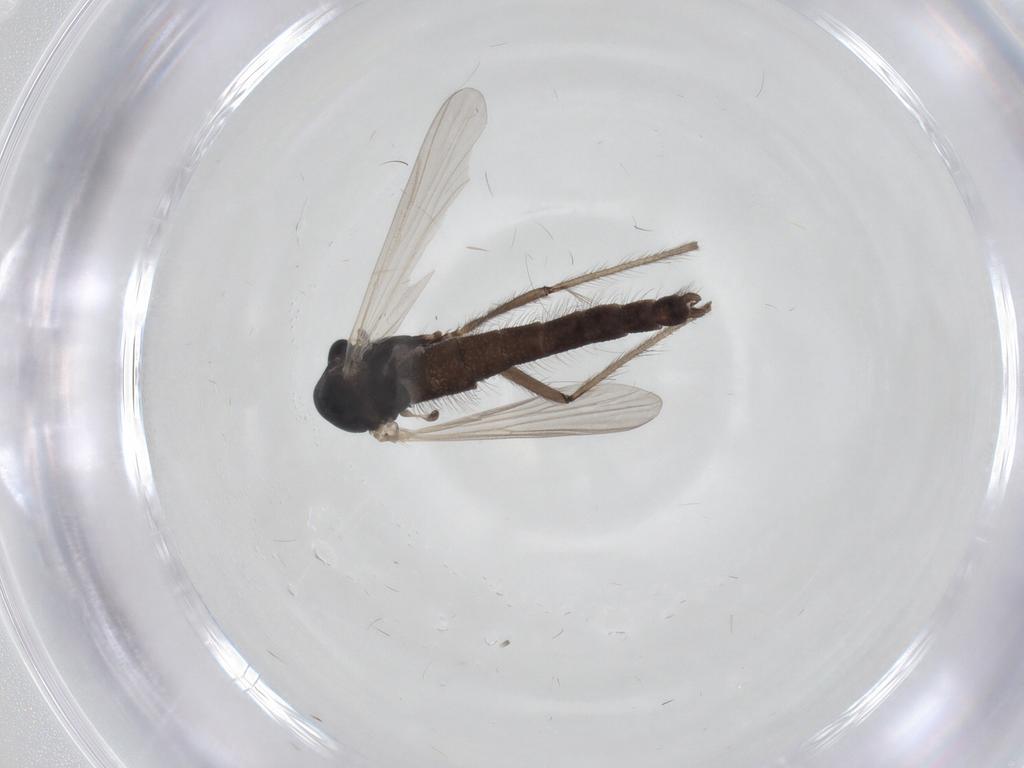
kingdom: Animalia
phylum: Arthropoda
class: Insecta
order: Diptera
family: Chironomidae
